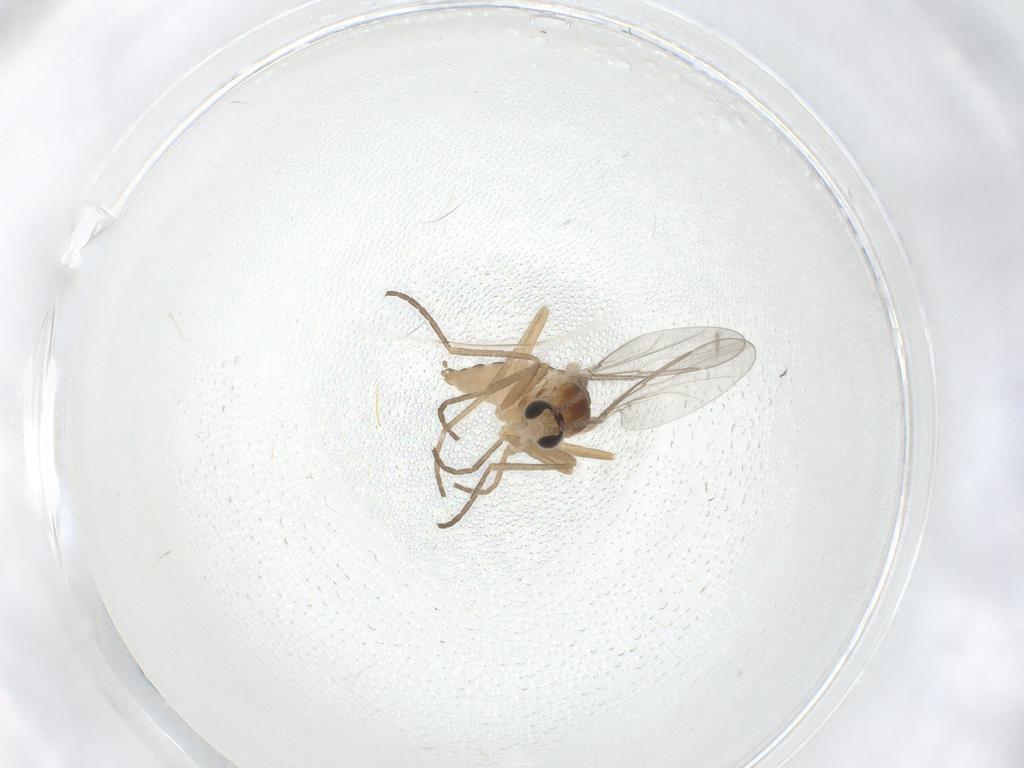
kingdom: Animalia
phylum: Arthropoda
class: Insecta
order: Diptera
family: Cecidomyiidae
